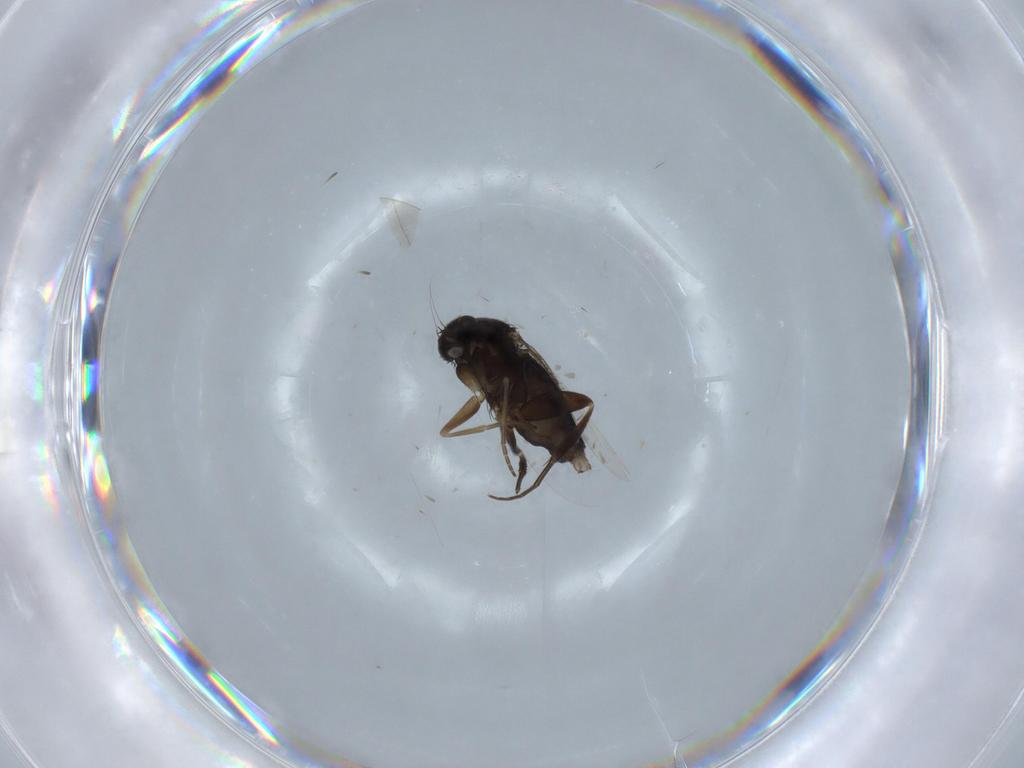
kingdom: Animalia
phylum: Arthropoda
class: Insecta
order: Diptera
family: Phoridae
